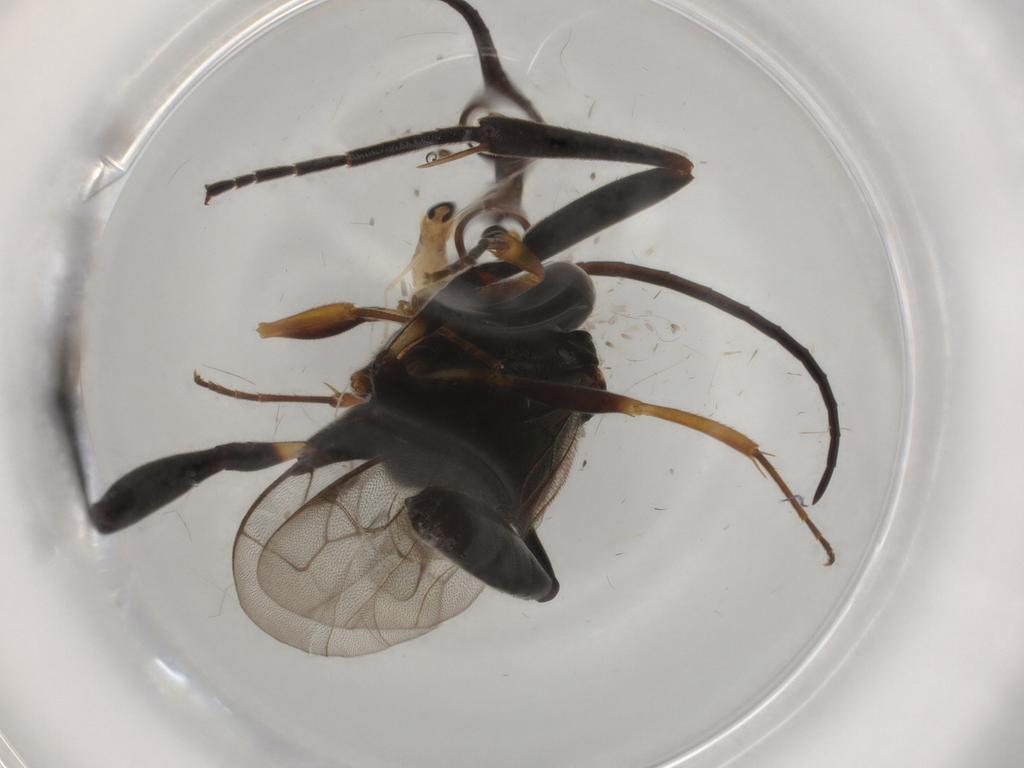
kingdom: Animalia
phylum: Arthropoda
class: Insecta
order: Hymenoptera
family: Evaniidae
